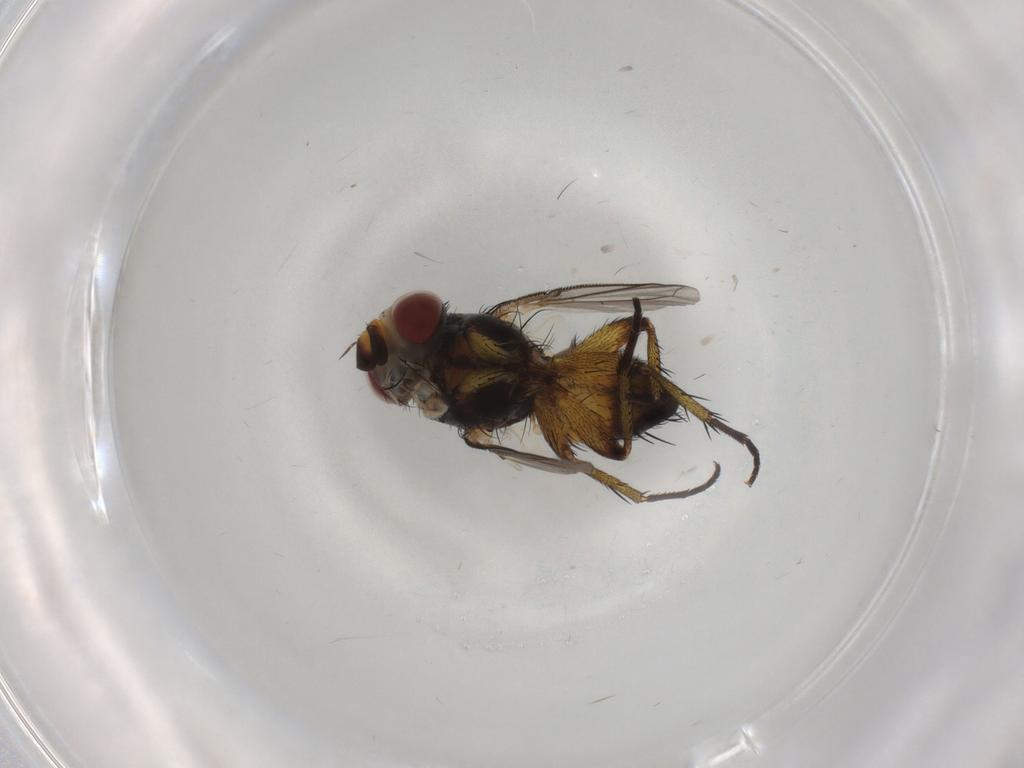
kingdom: Animalia
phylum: Arthropoda
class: Insecta
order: Diptera
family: Tachinidae
